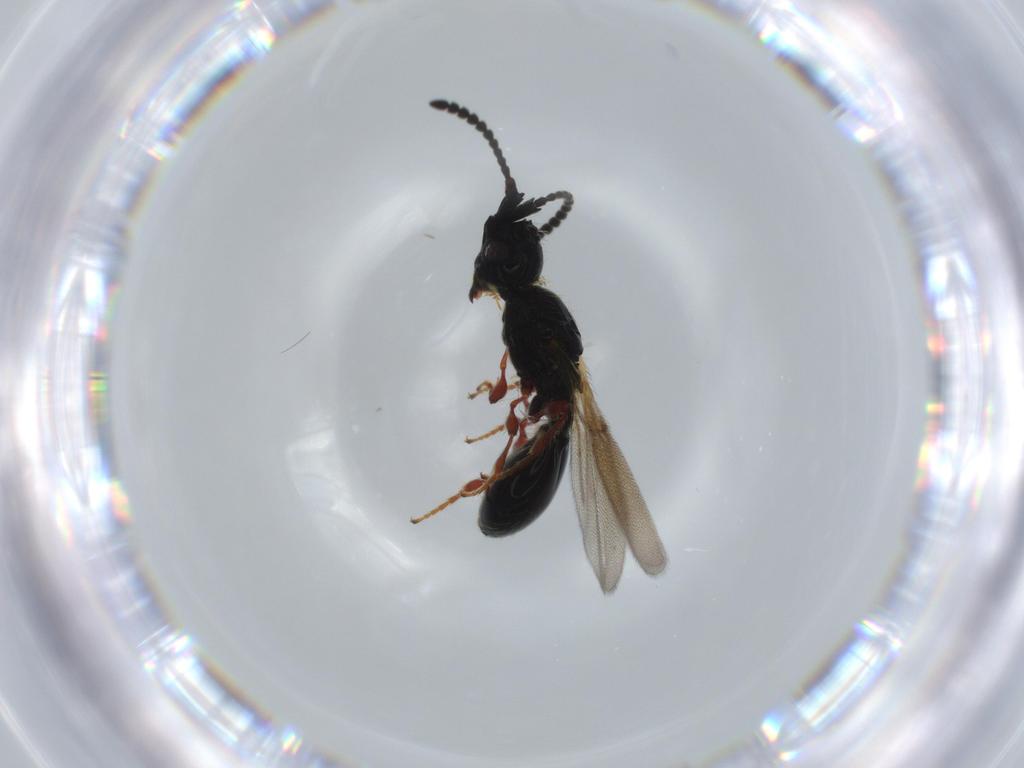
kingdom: Animalia
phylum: Arthropoda
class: Insecta
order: Hymenoptera
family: Diapriidae
